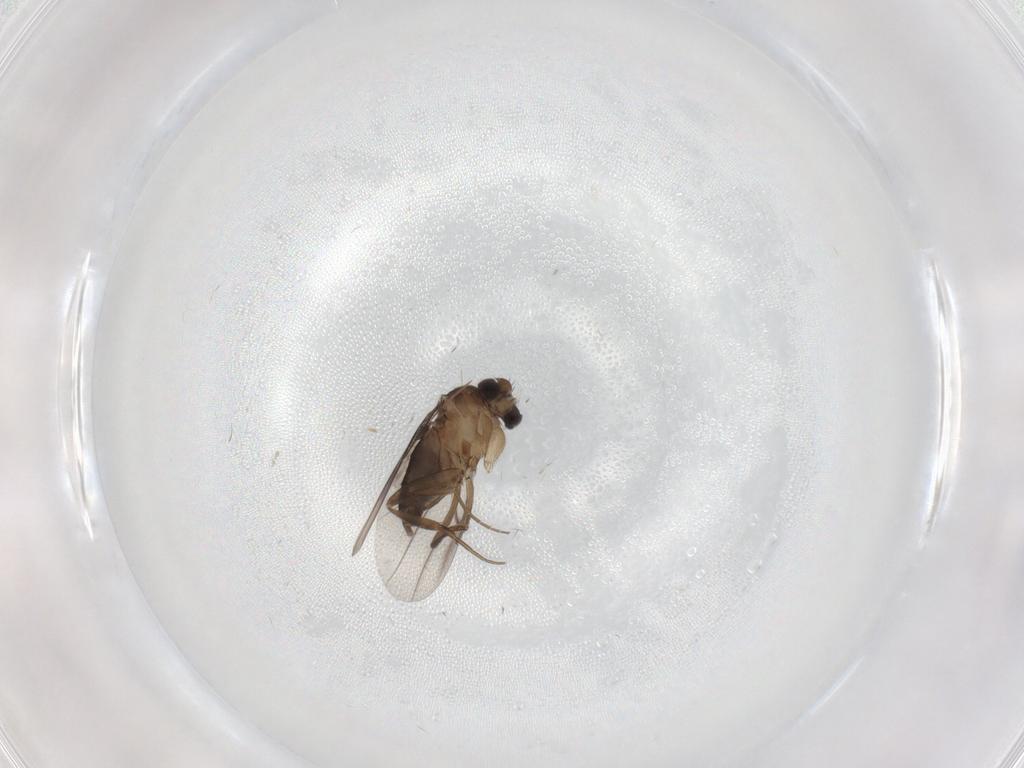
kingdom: Animalia
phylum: Arthropoda
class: Insecta
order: Diptera
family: Phoridae
